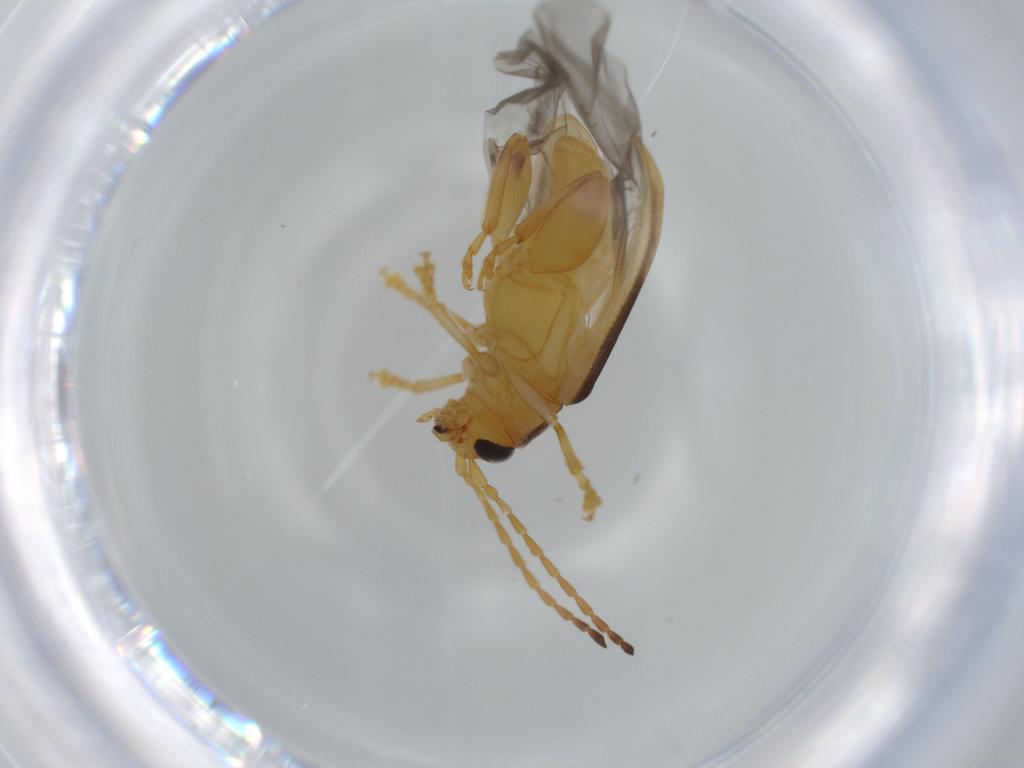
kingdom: Animalia
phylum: Arthropoda
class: Insecta
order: Coleoptera
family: Chrysomelidae
